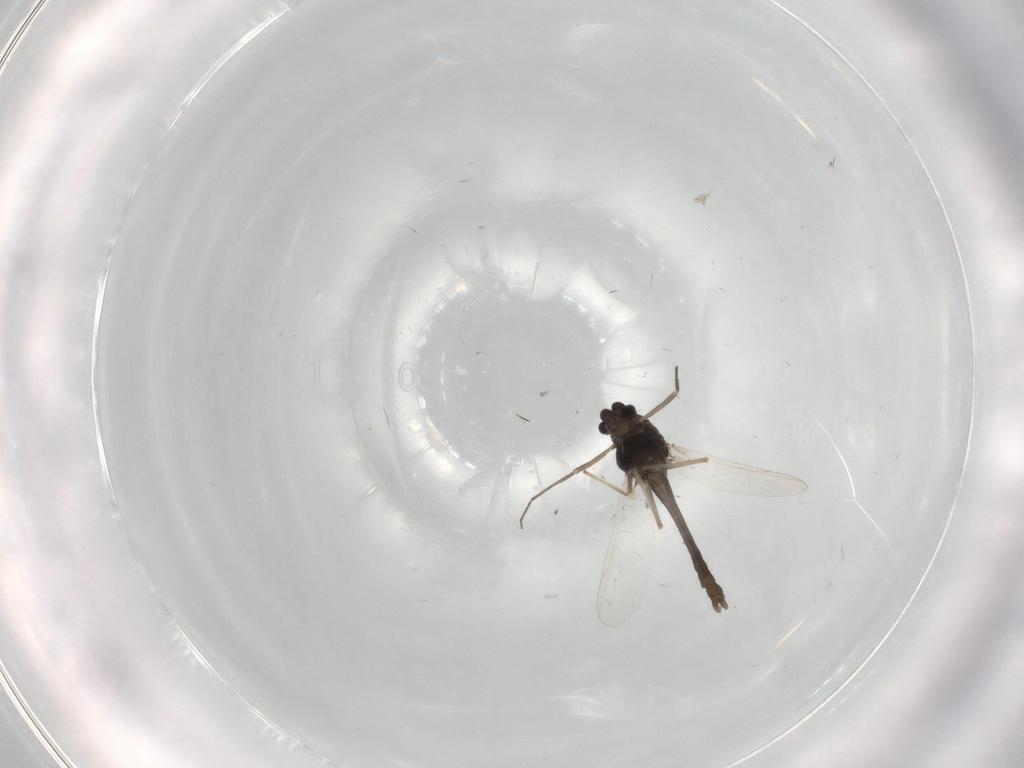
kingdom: Animalia
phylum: Arthropoda
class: Insecta
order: Diptera
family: Chironomidae
